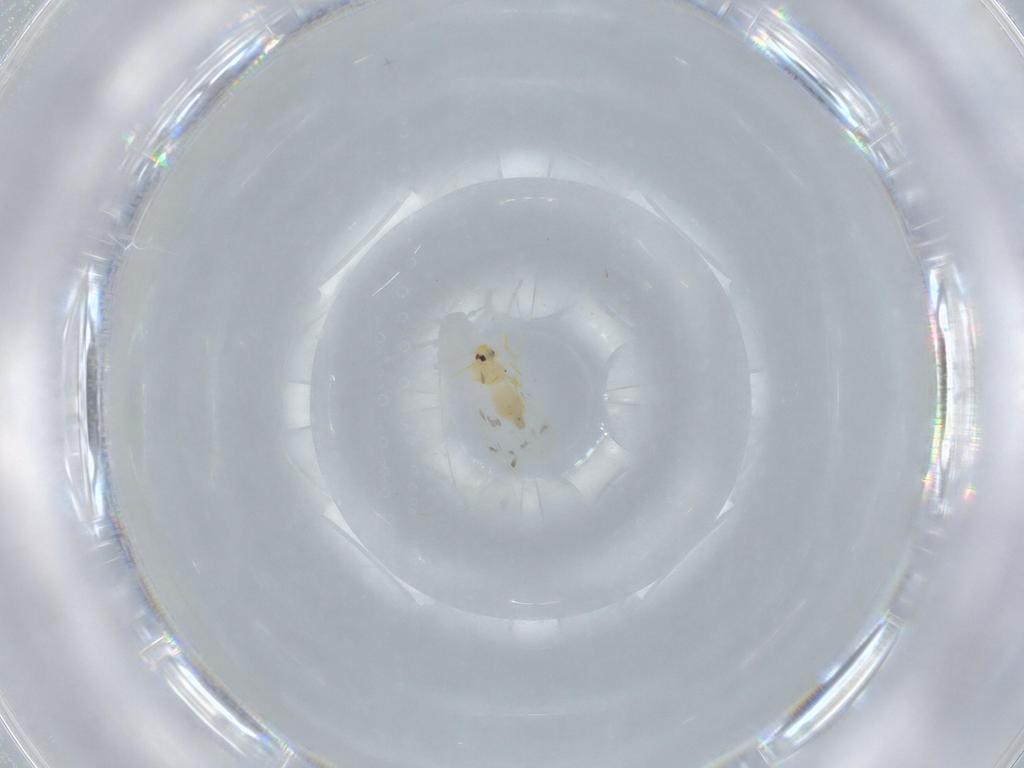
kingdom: Animalia
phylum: Arthropoda
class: Insecta
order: Hemiptera
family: Aleyrodidae
